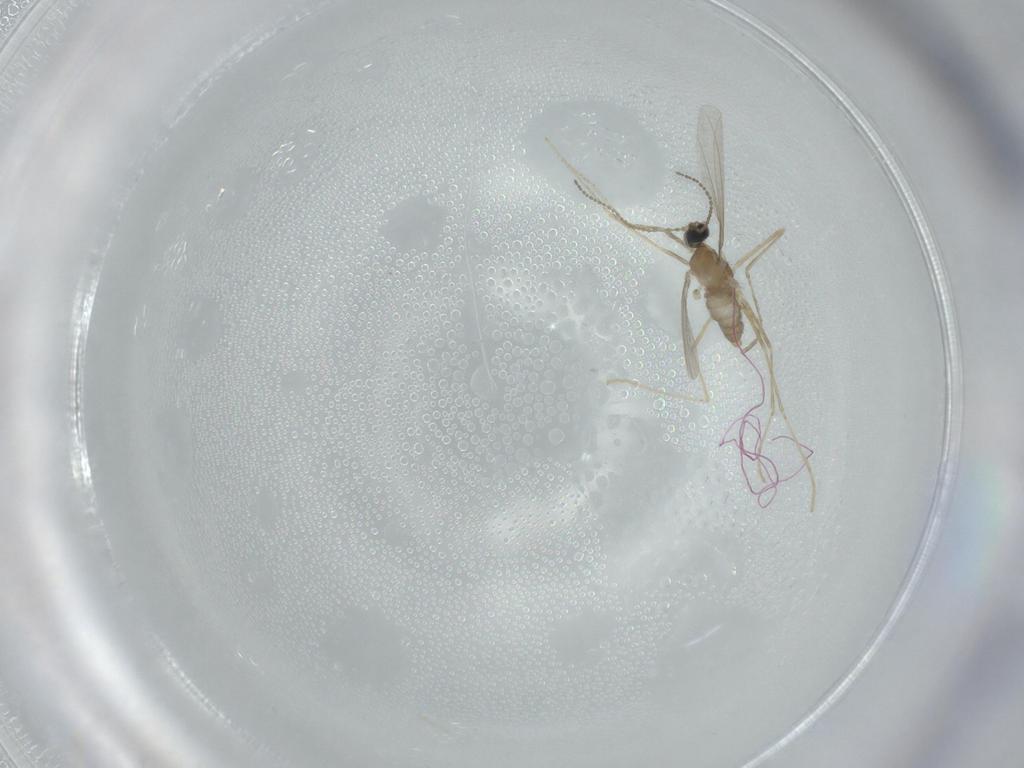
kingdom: Animalia
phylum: Arthropoda
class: Insecta
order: Diptera
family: Cecidomyiidae
